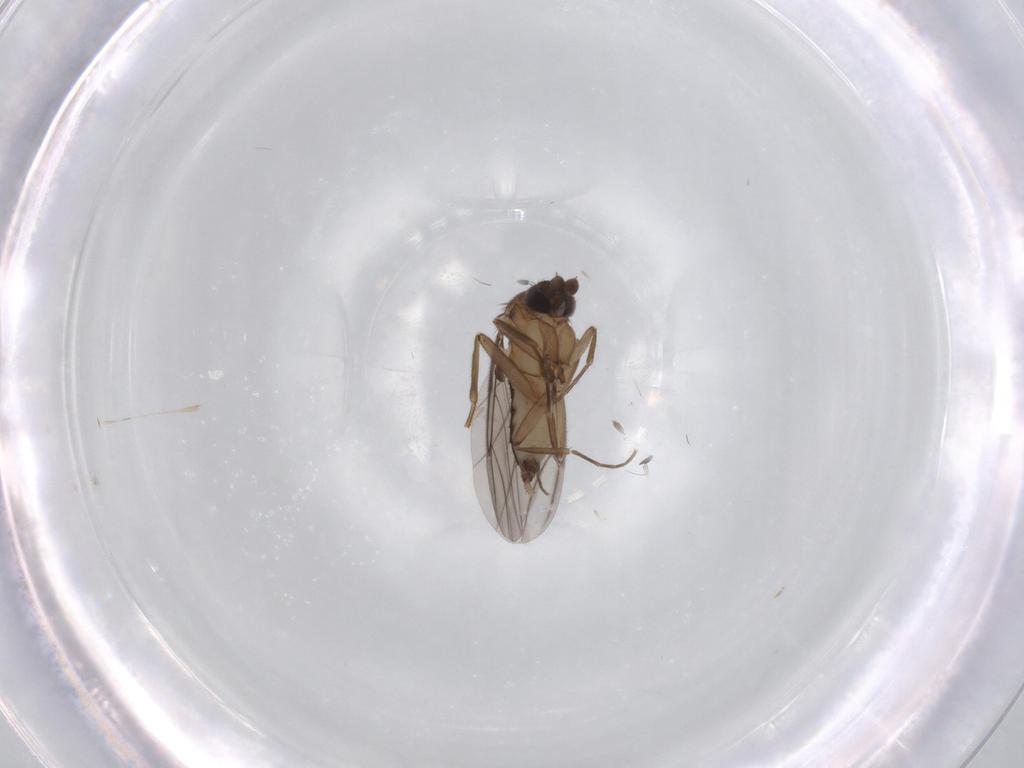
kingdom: Animalia
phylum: Arthropoda
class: Insecta
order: Diptera
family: Phoridae
